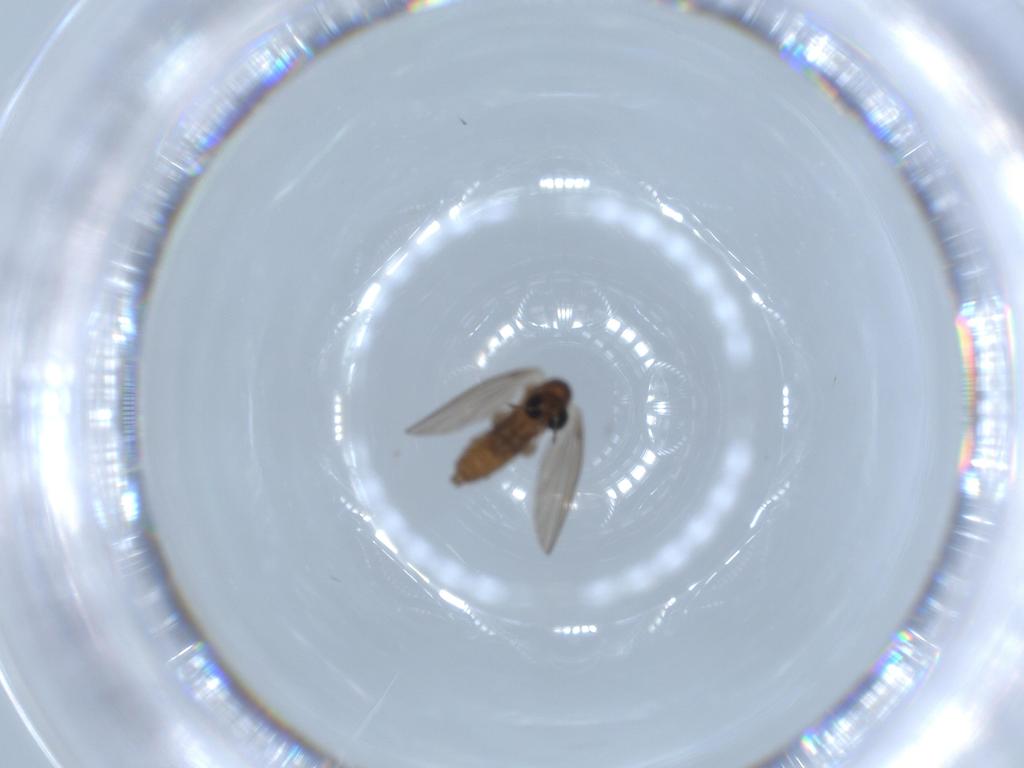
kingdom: Animalia
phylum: Arthropoda
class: Insecta
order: Diptera
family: Psychodidae
